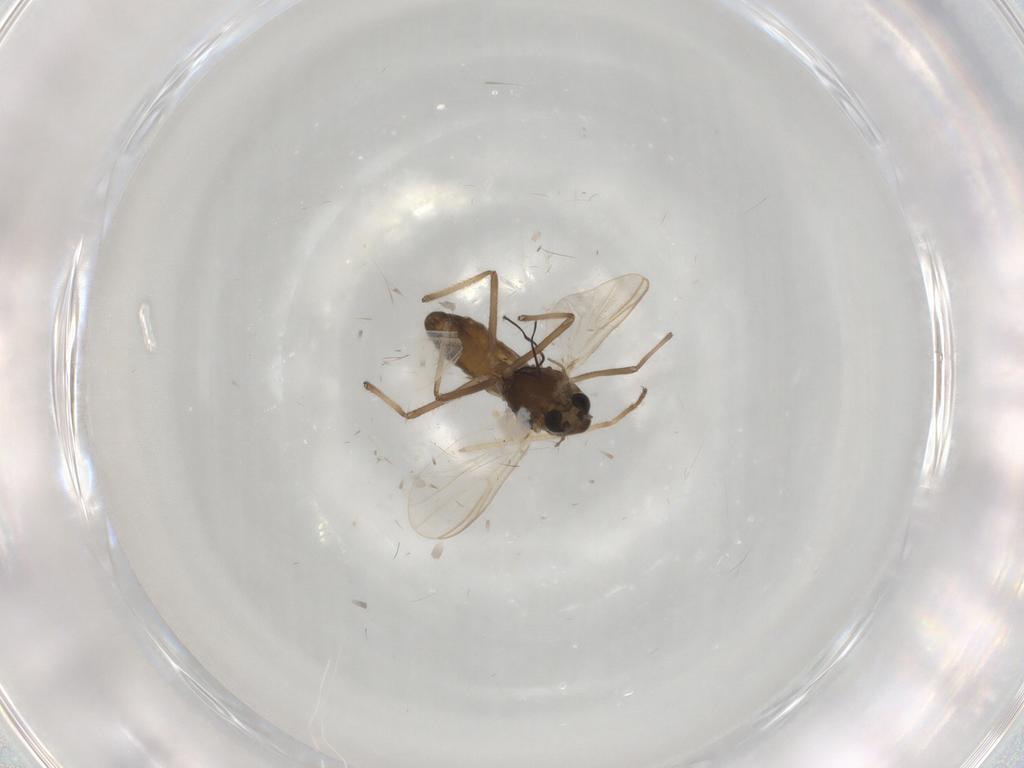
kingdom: Animalia
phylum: Arthropoda
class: Insecta
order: Diptera
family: Chironomidae
